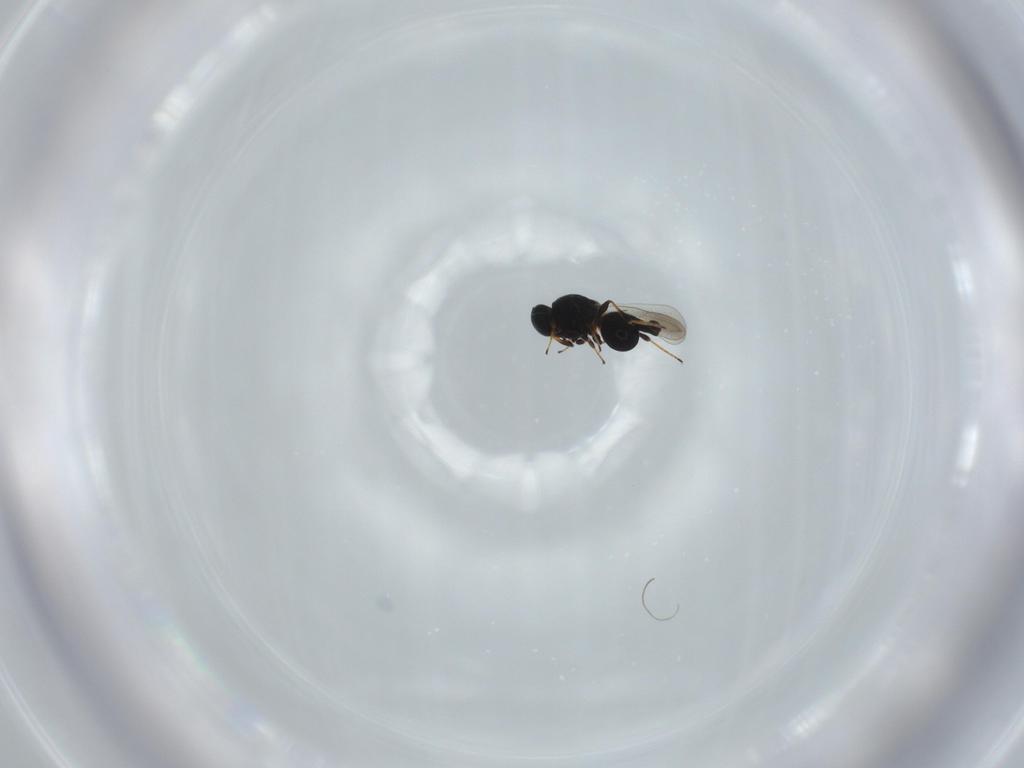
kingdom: Animalia
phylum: Arthropoda
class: Insecta
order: Hymenoptera
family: Platygastridae
